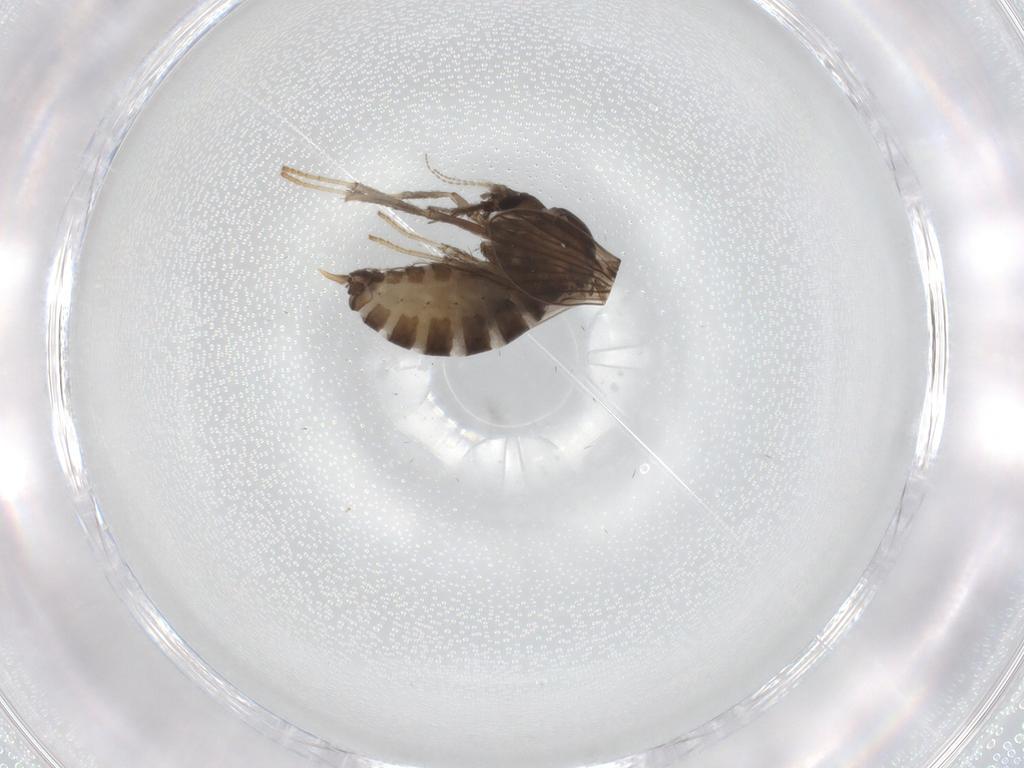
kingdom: Animalia
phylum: Arthropoda
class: Insecta
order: Diptera
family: Psychodidae
